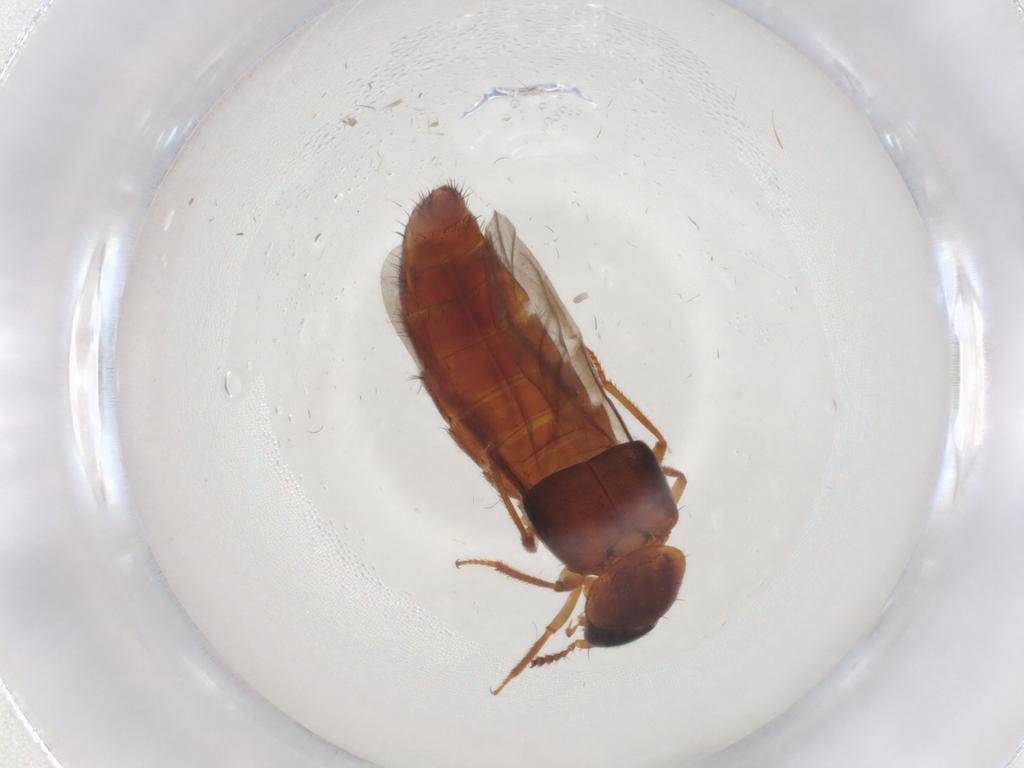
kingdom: Animalia
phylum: Arthropoda
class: Insecta
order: Coleoptera
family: Staphylinidae
